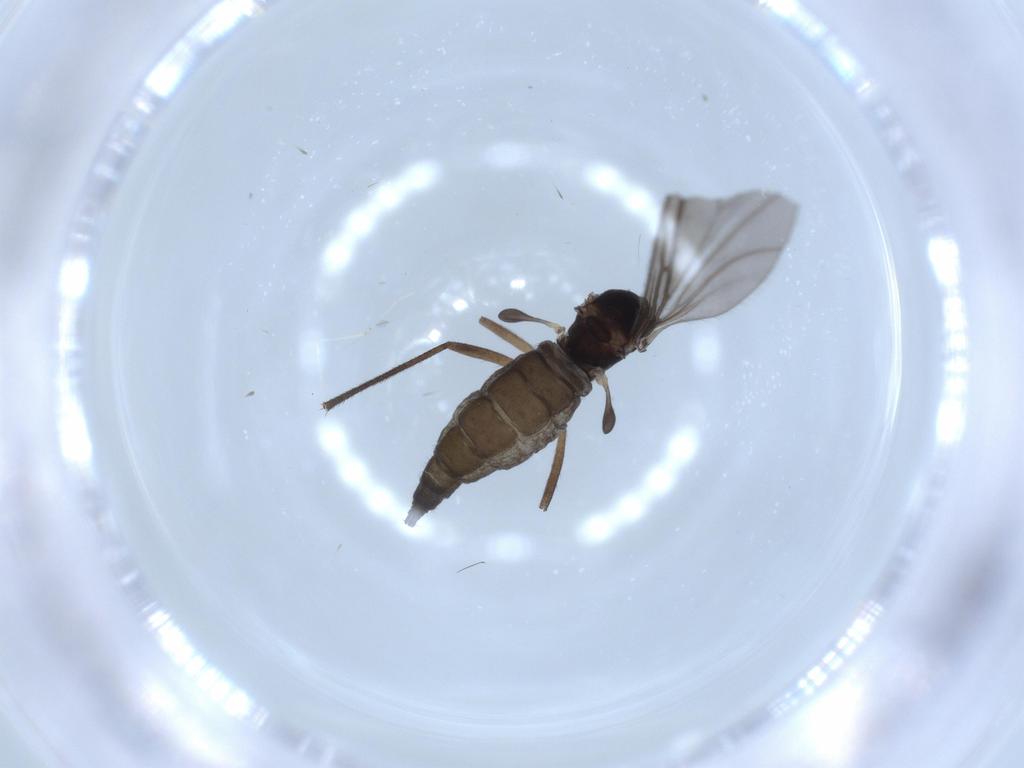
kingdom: Animalia
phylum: Arthropoda
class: Insecta
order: Diptera
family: Sciaridae
